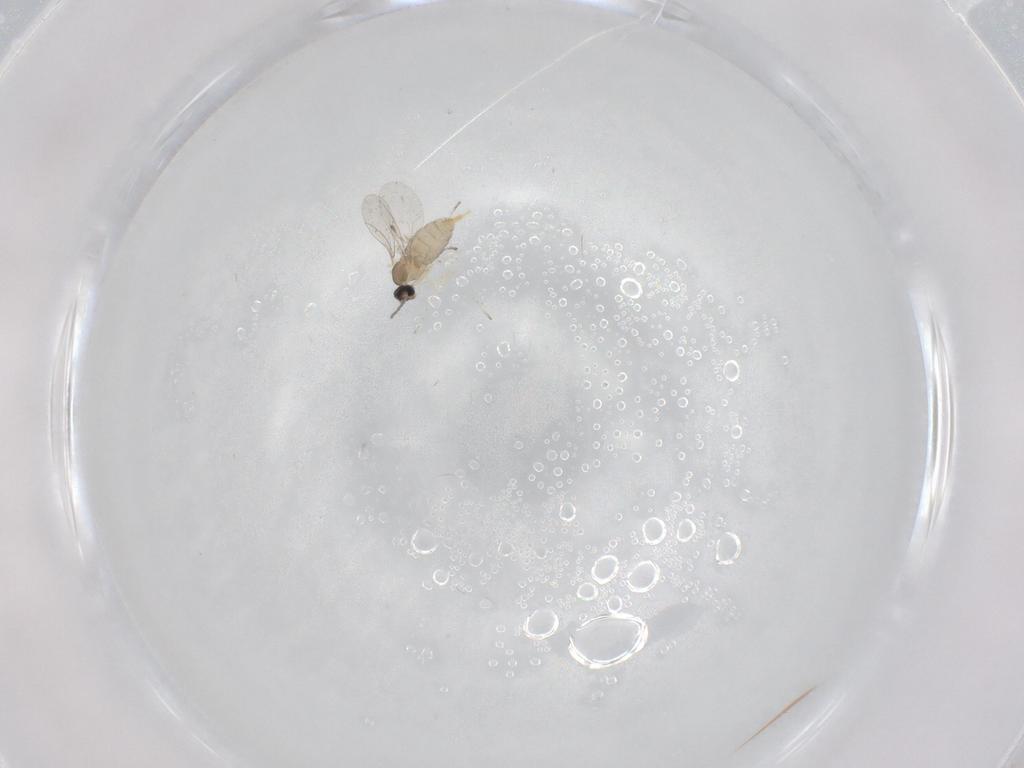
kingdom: Animalia
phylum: Arthropoda
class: Insecta
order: Diptera
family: Cecidomyiidae
